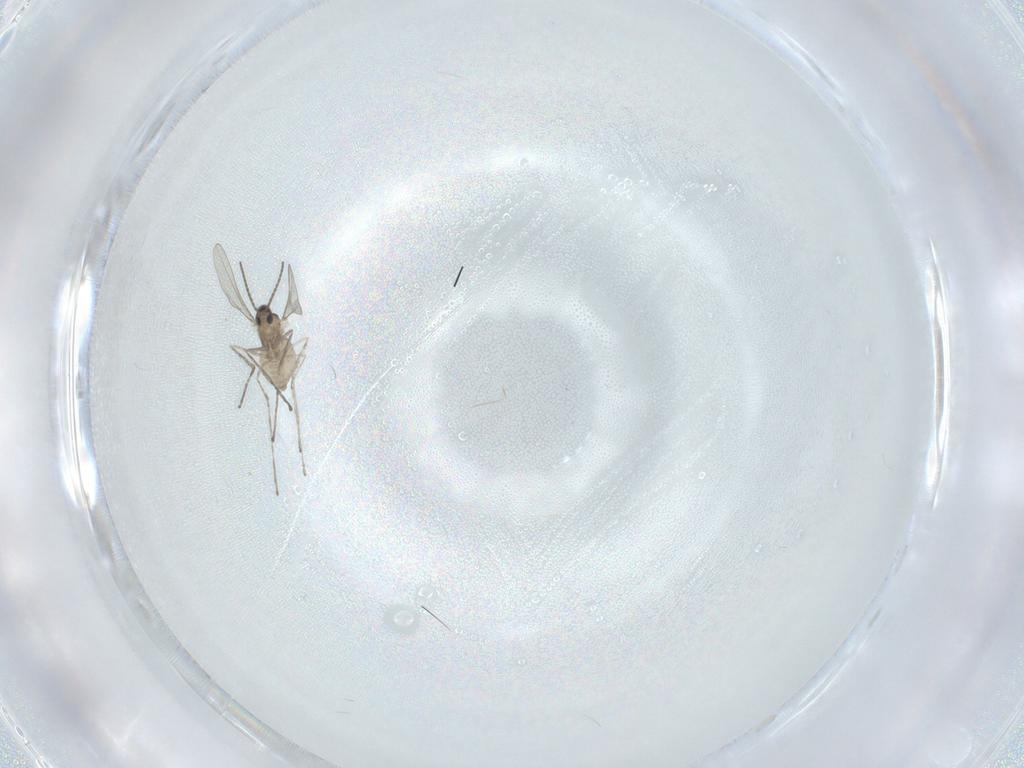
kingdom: Animalia
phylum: Arthropoda
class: Insecta
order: Diptera
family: Cecidomyiidae
